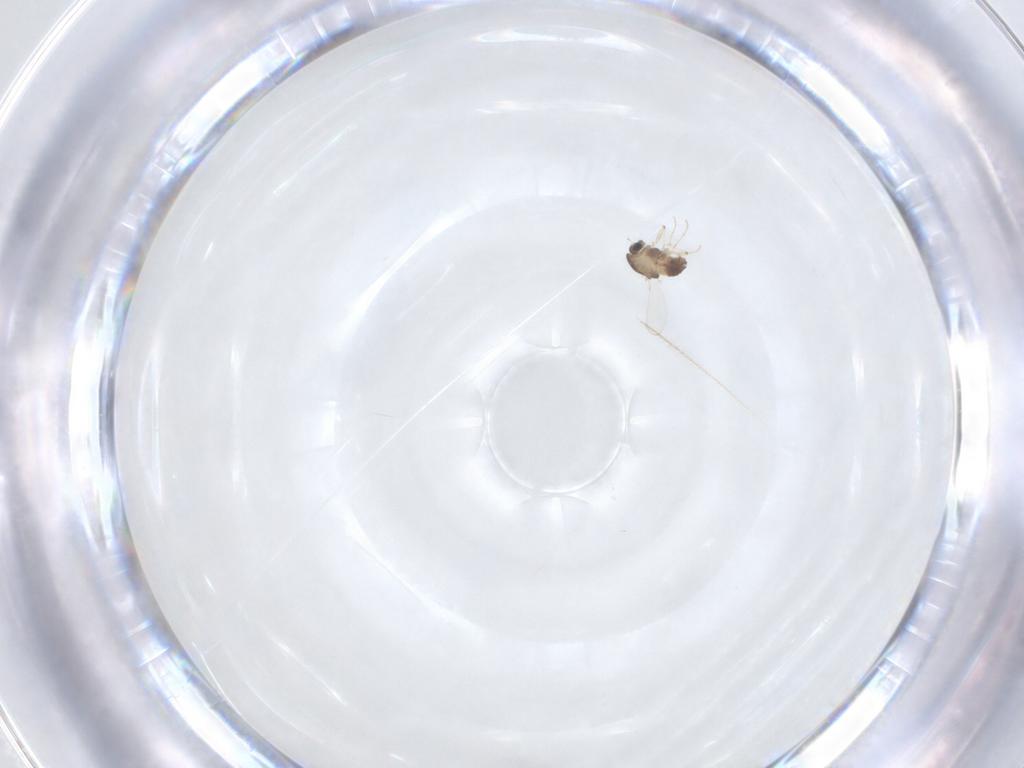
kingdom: Animalia
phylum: Arthropoda
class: Insecta
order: Diptera
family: Chironomidae
